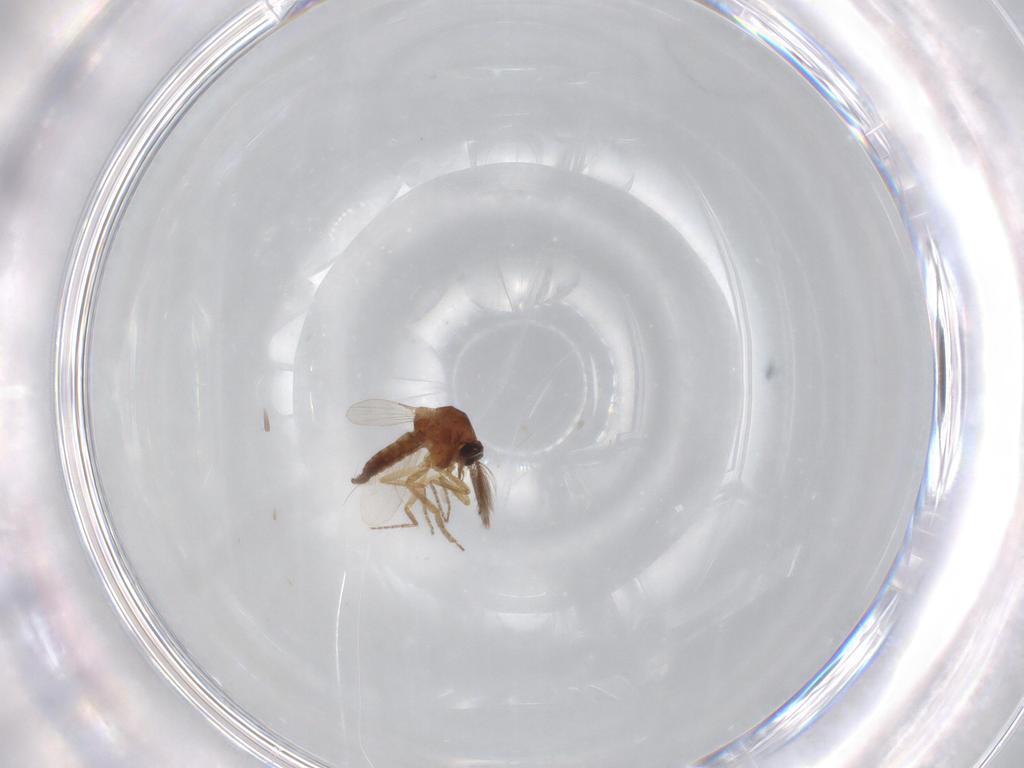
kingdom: Animalia
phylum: Arthropoda
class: Insecta
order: Diptera
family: Ceratopogonidae
